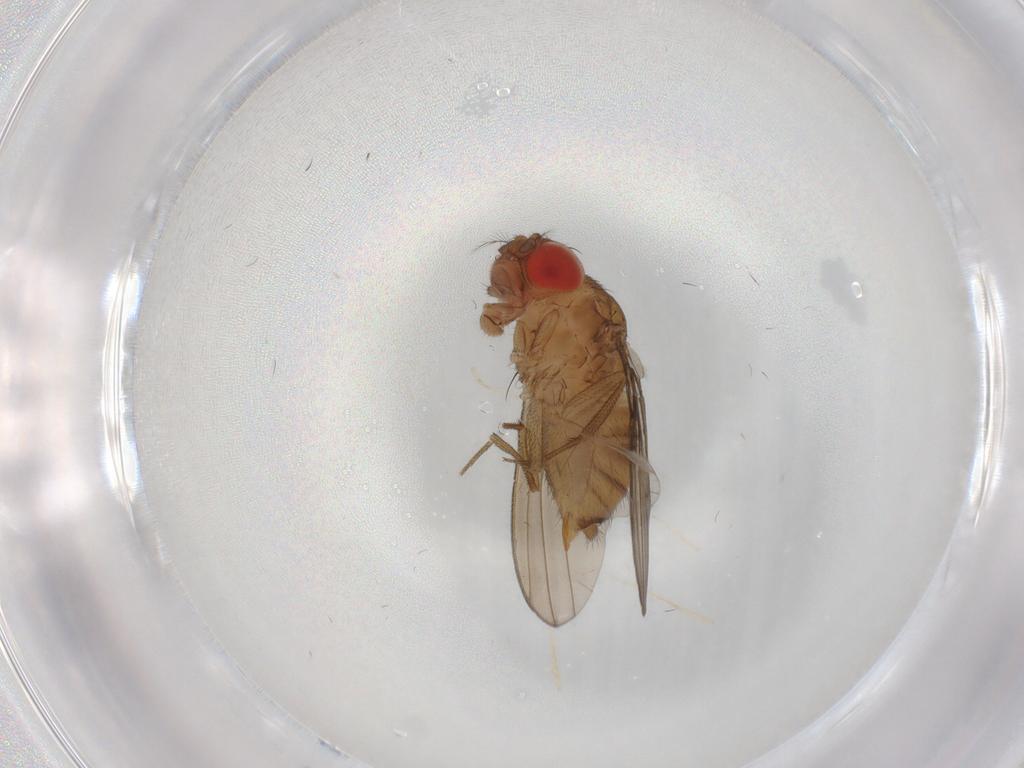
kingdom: Animalia
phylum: Arthropoda
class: Insecta
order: Diptera
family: Drosophilidae
